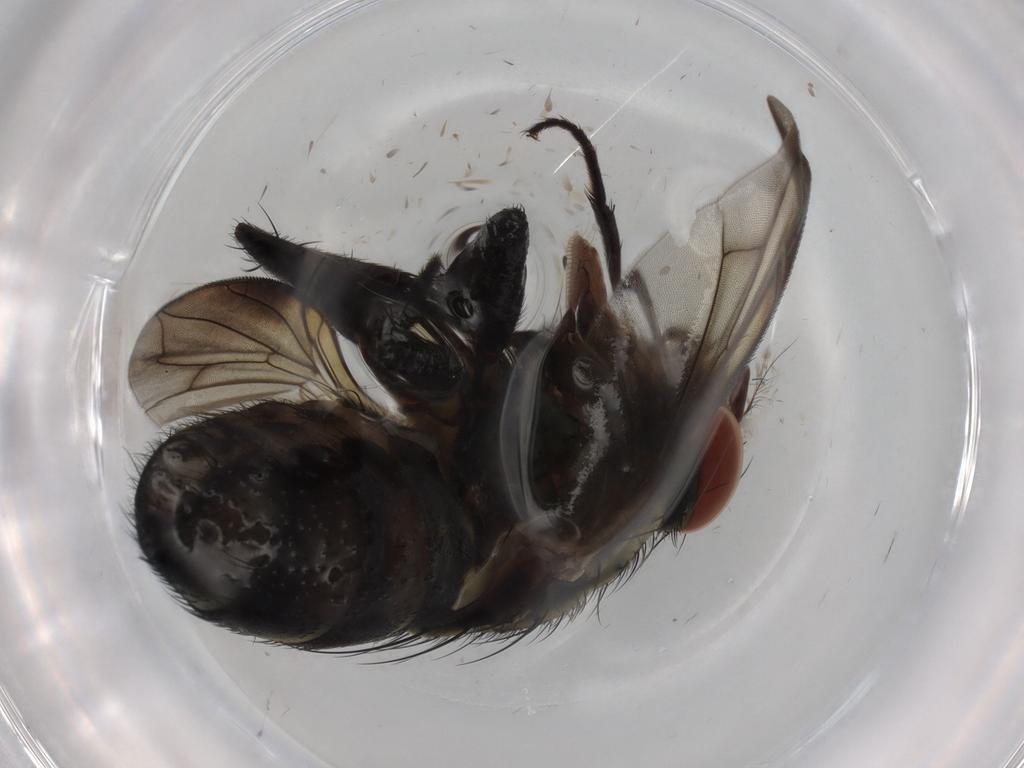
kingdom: Animalia
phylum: Arthropoda
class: Insecta
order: Diptera
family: Sarcophagidae
